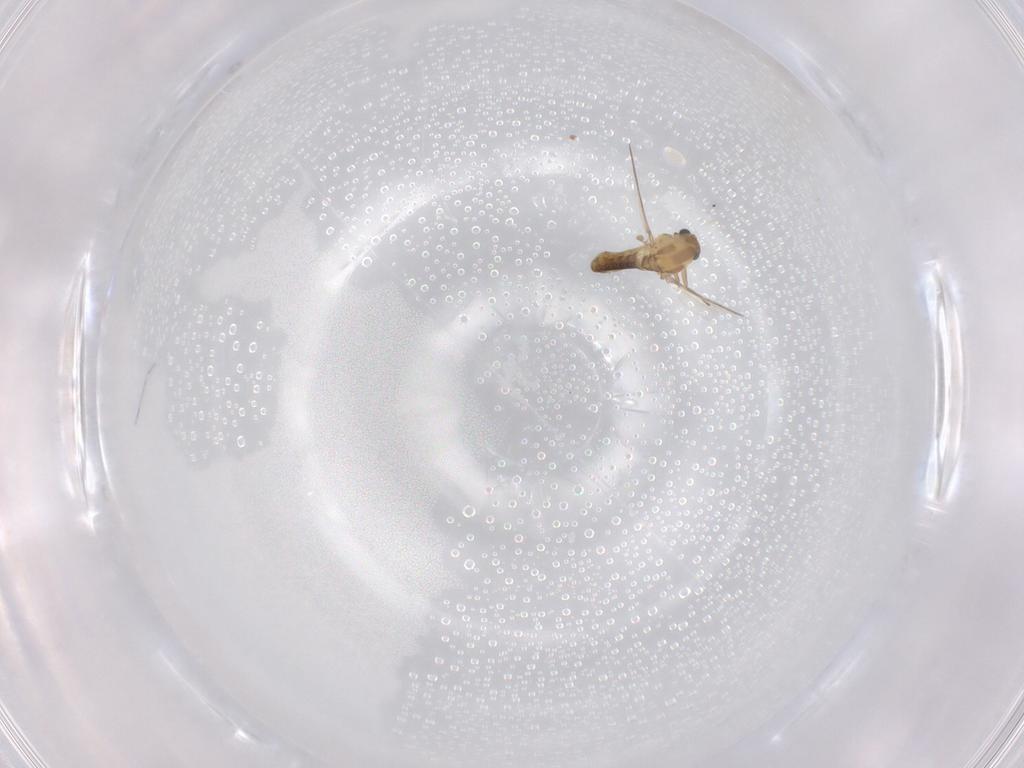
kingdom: Animalia
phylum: Arthropoda
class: Insecta
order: Diptera
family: Chironomidae
